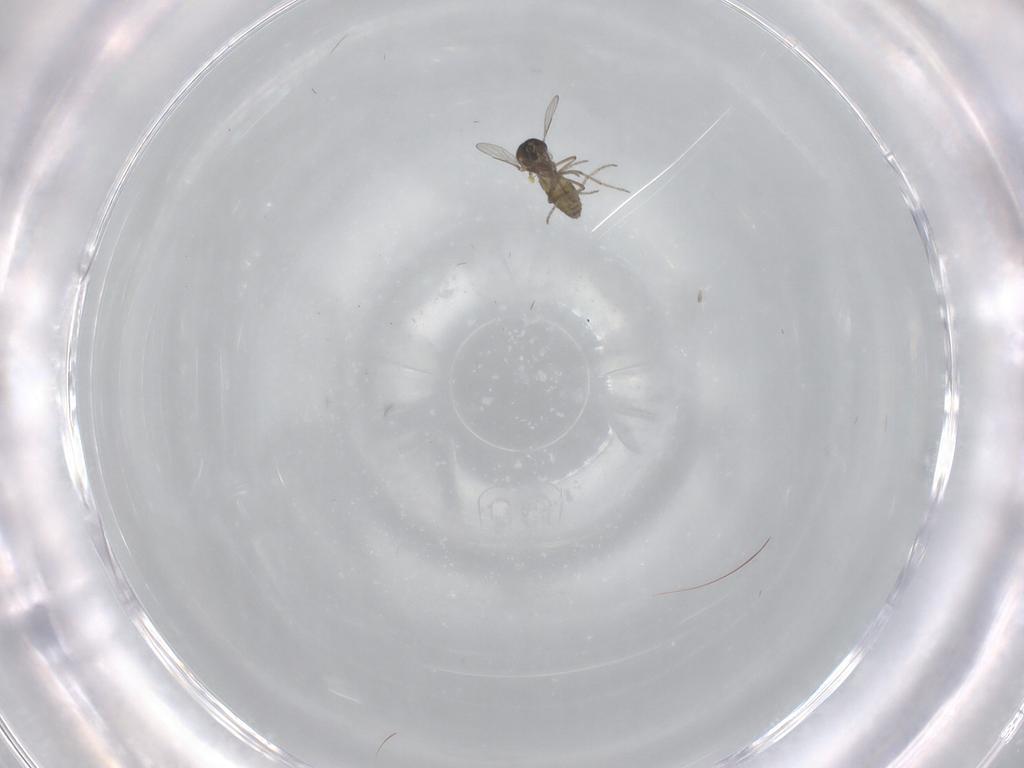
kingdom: Animalia
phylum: Arthropoda
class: Insecta
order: Diptera
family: Ceratopogonidae
